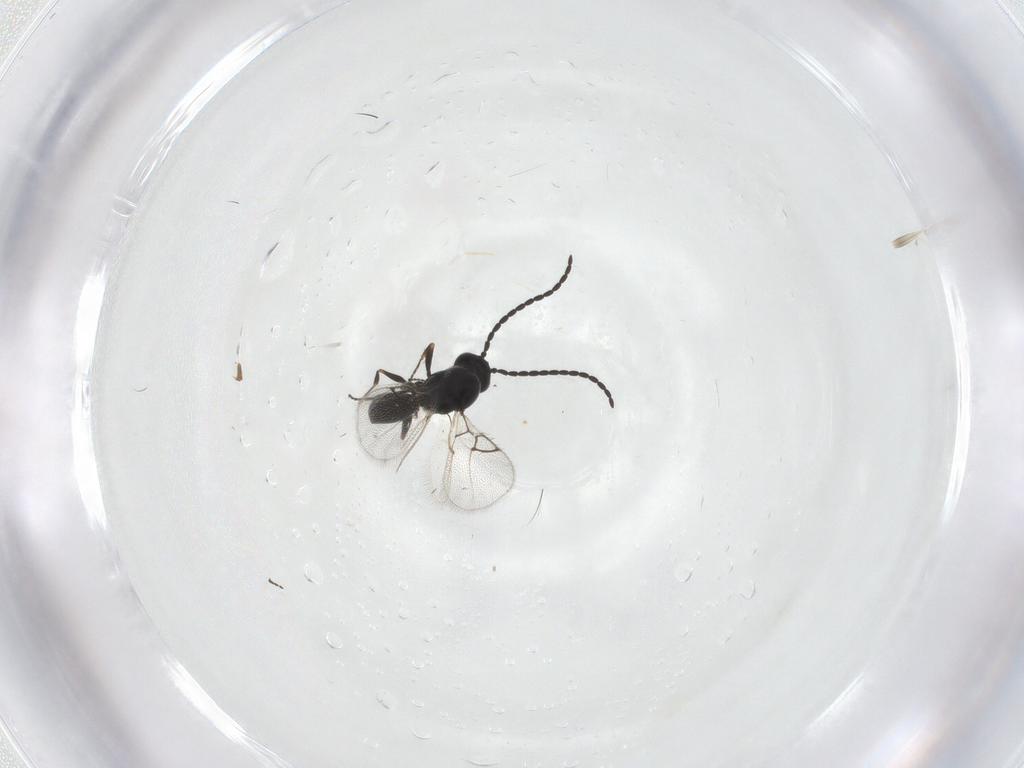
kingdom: Animalia
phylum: Arthropoda
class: Insecta
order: Hymenoptera
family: Ichneumonidae
